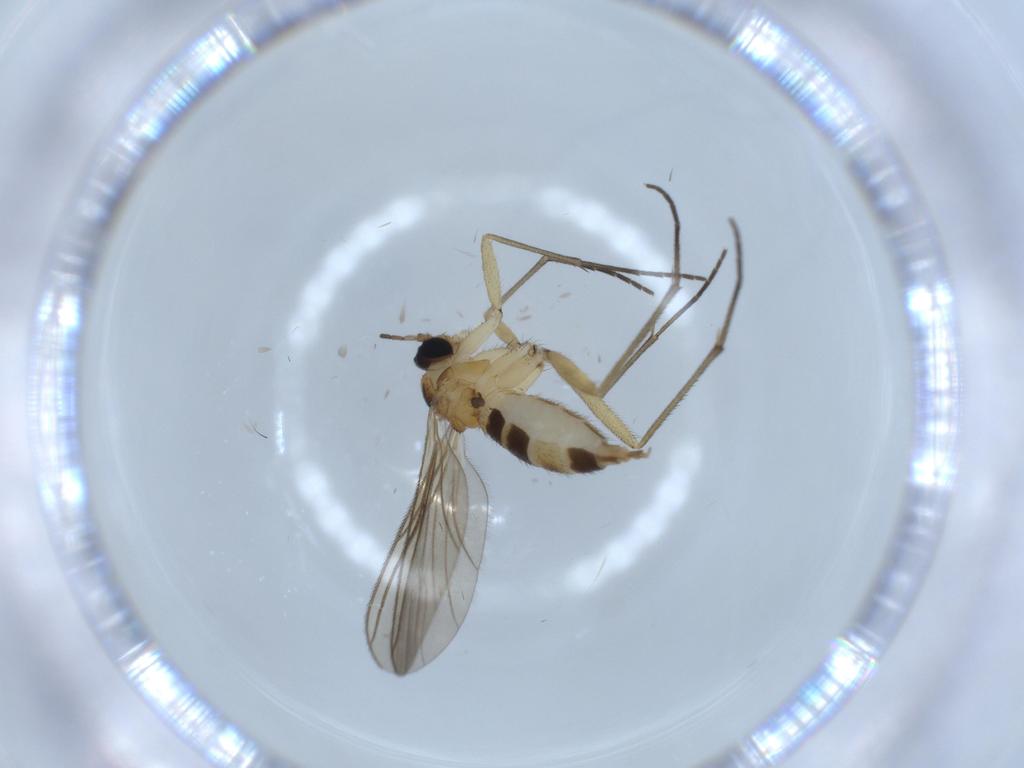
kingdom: Animalia
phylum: Arthropoda
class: Insecta
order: Diptera
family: Sciaridae
